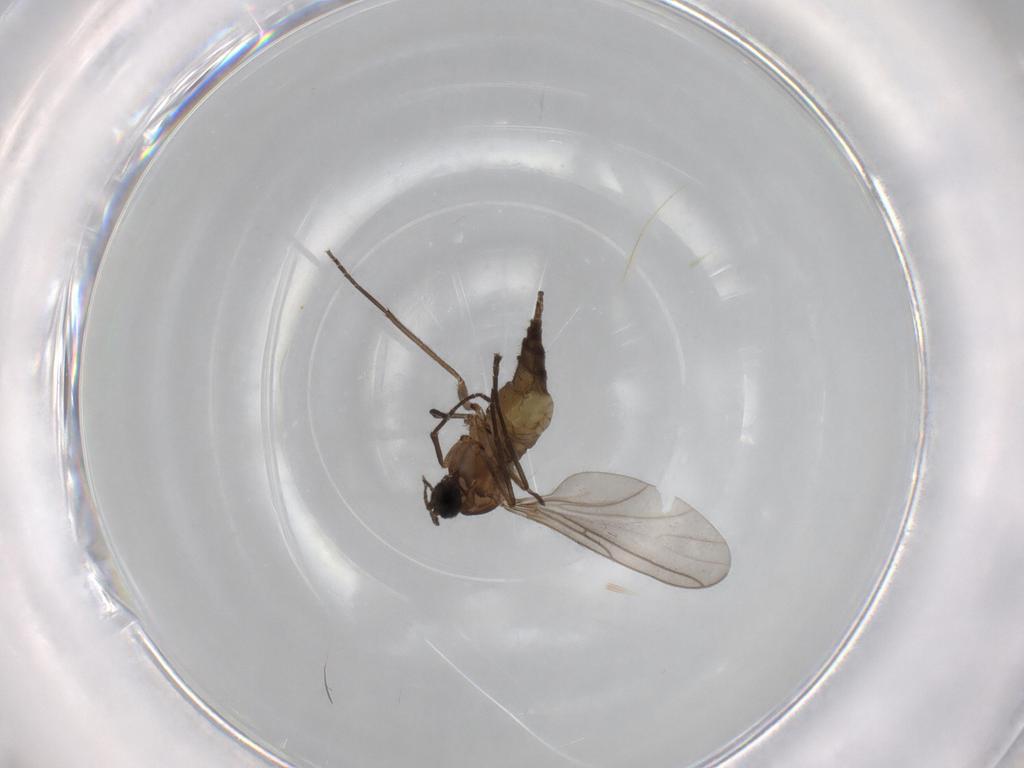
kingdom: Animalia
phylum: Arthropoda
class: Insecta
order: Diptera
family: Sciaridae
